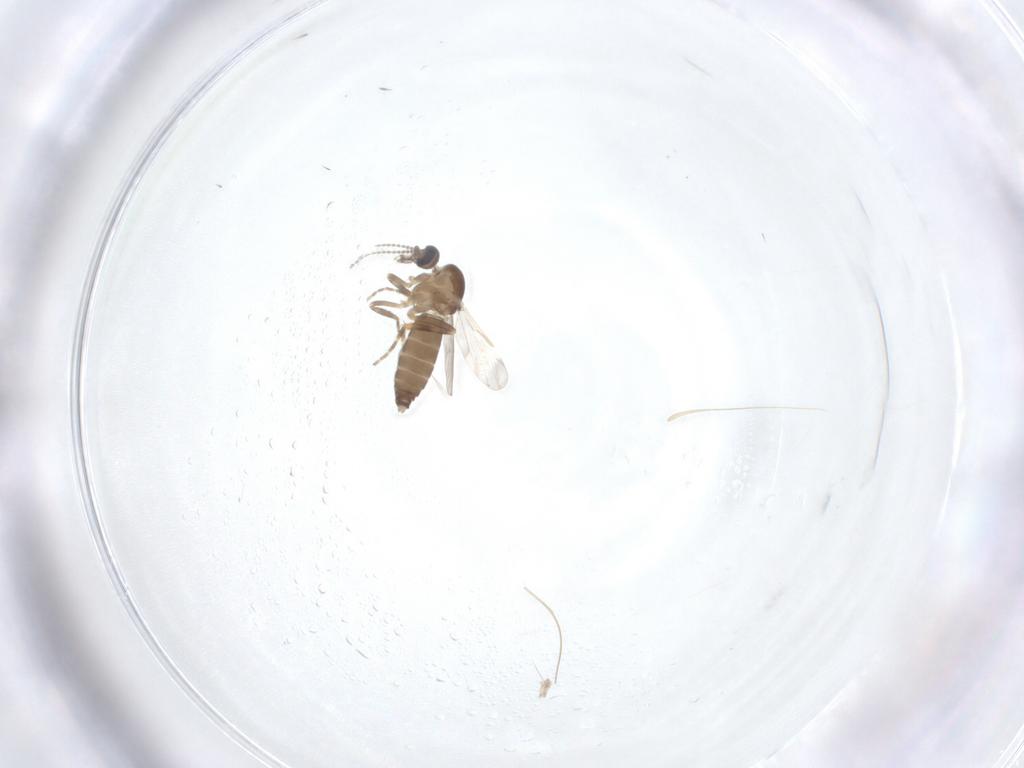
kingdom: Animalia
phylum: Arthropoda
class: Insecta
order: Diptera
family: Ceratopogonidae
